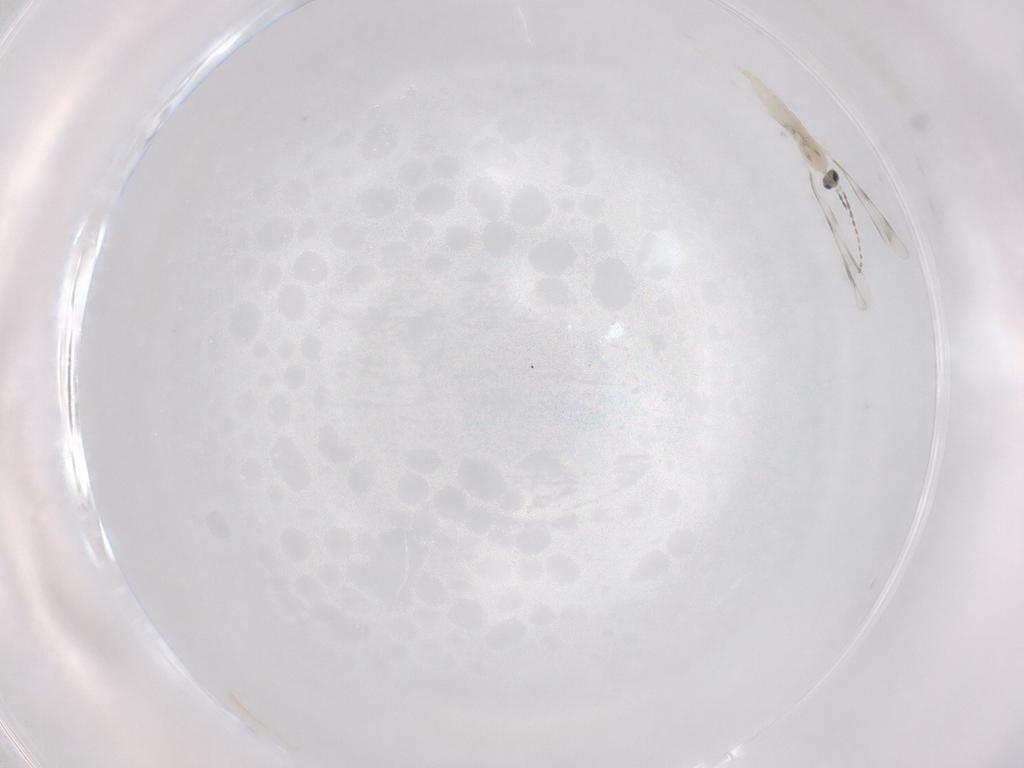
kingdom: Animalia
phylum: Arthropoda
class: Insecta
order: Diptera
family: Cecidomyiidae
